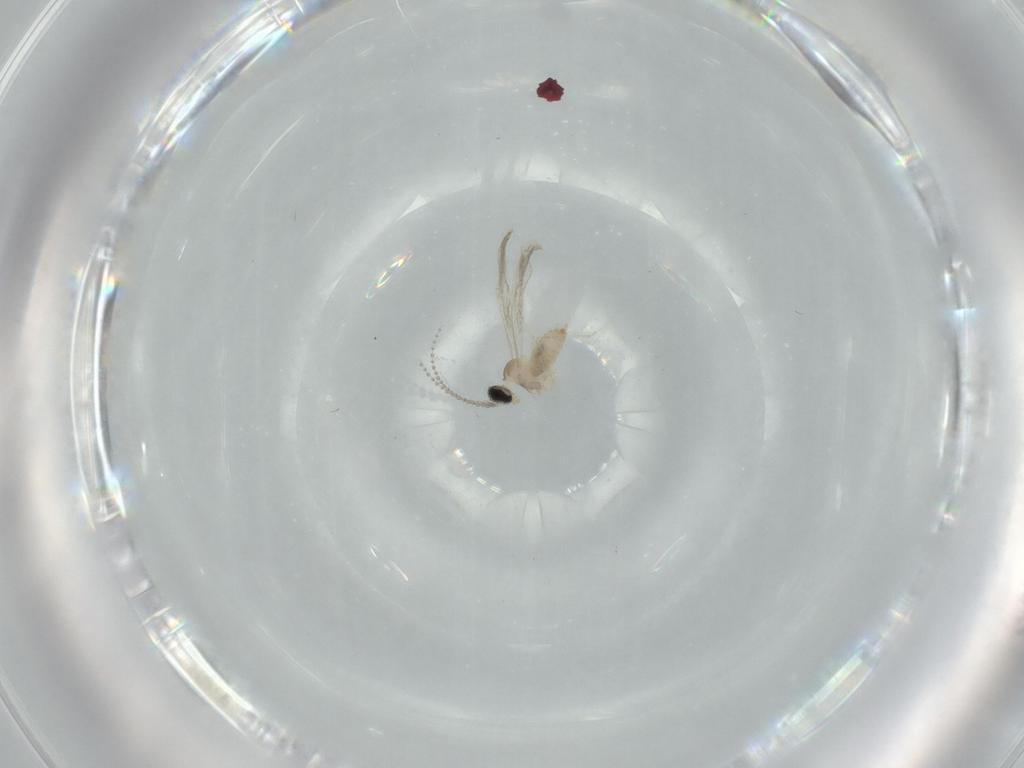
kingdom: Animalia
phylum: Arthropoda
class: Insecta
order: Diptera
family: Cecidomyiidae
